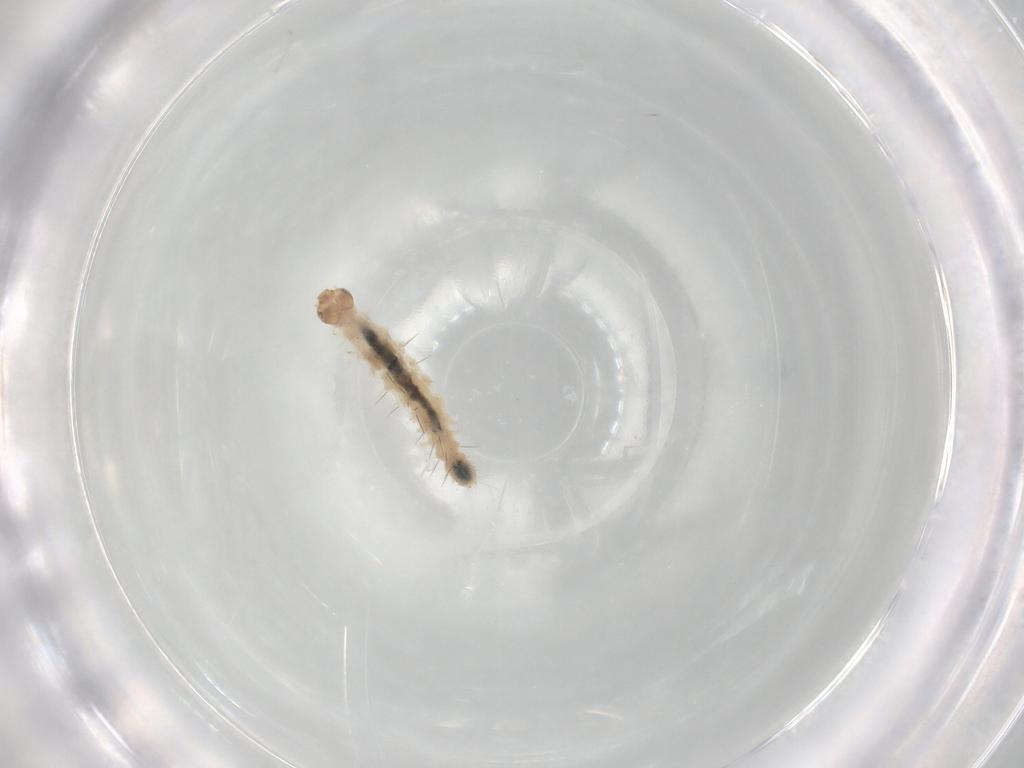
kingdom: Animalia
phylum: Arthropoda
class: Insecta
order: Lepidoptera
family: Erebidae
